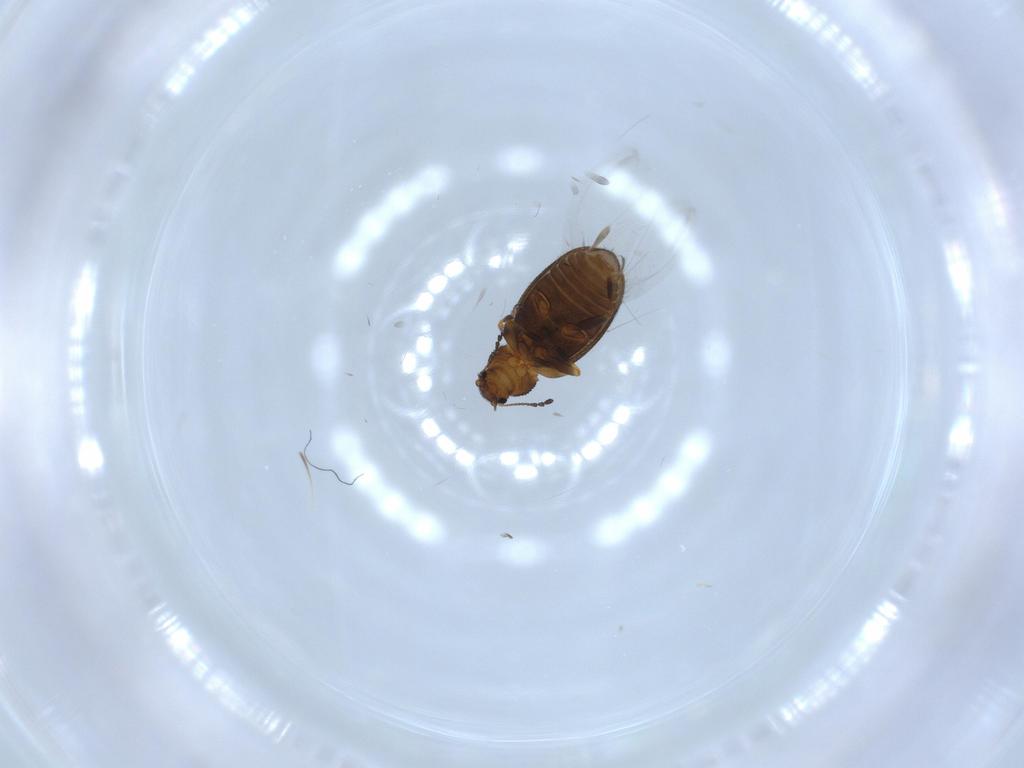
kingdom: Animalia
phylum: Arthropoda
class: Insecta
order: Coleoptera
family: Latridiidae
